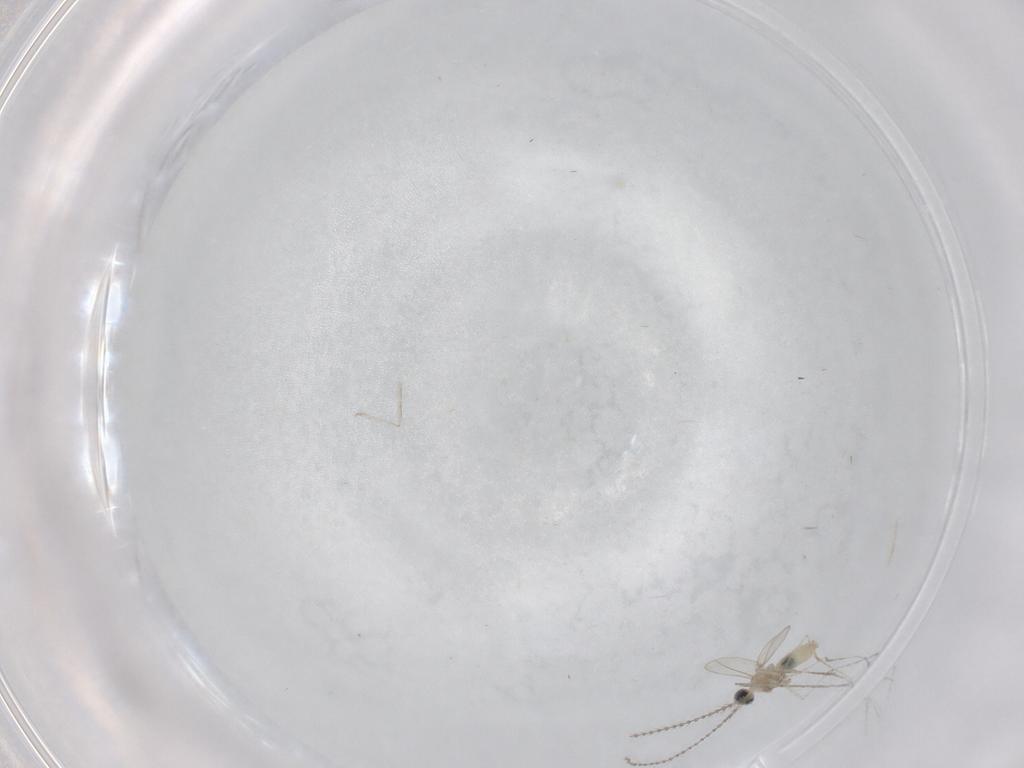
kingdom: Animalia
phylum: Arthropoda
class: Insecta
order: Diptera
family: Cecidomyiidae
